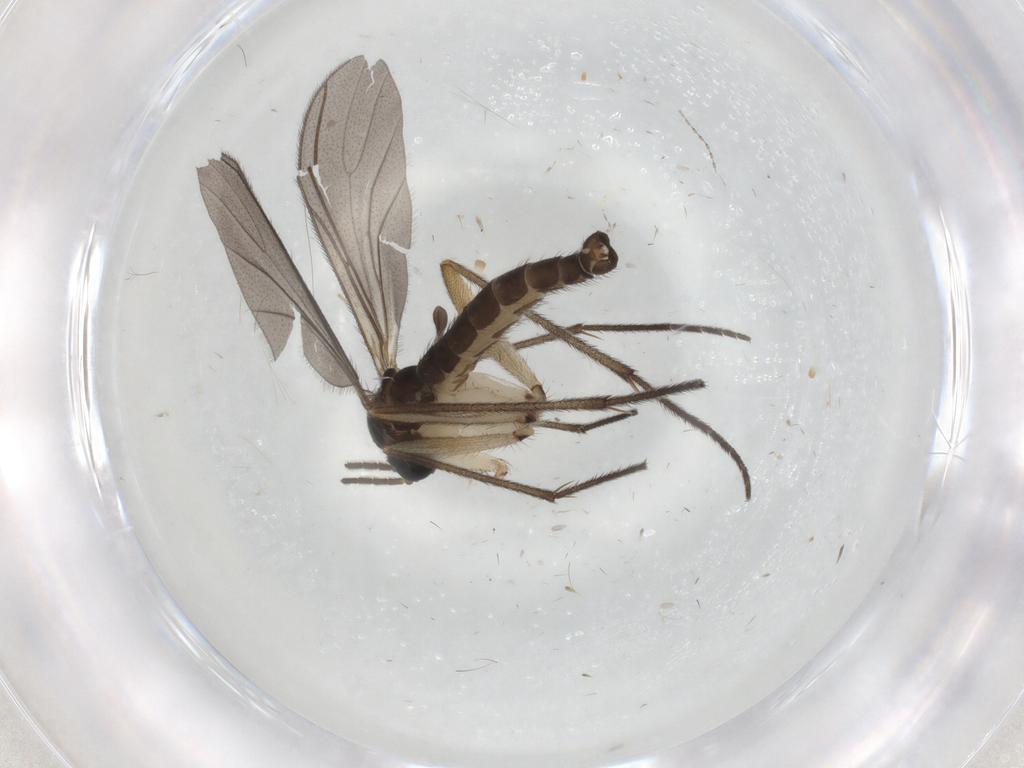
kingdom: Animalia
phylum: Arthropoda
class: Insecta
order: Diptera
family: Sciaridae
